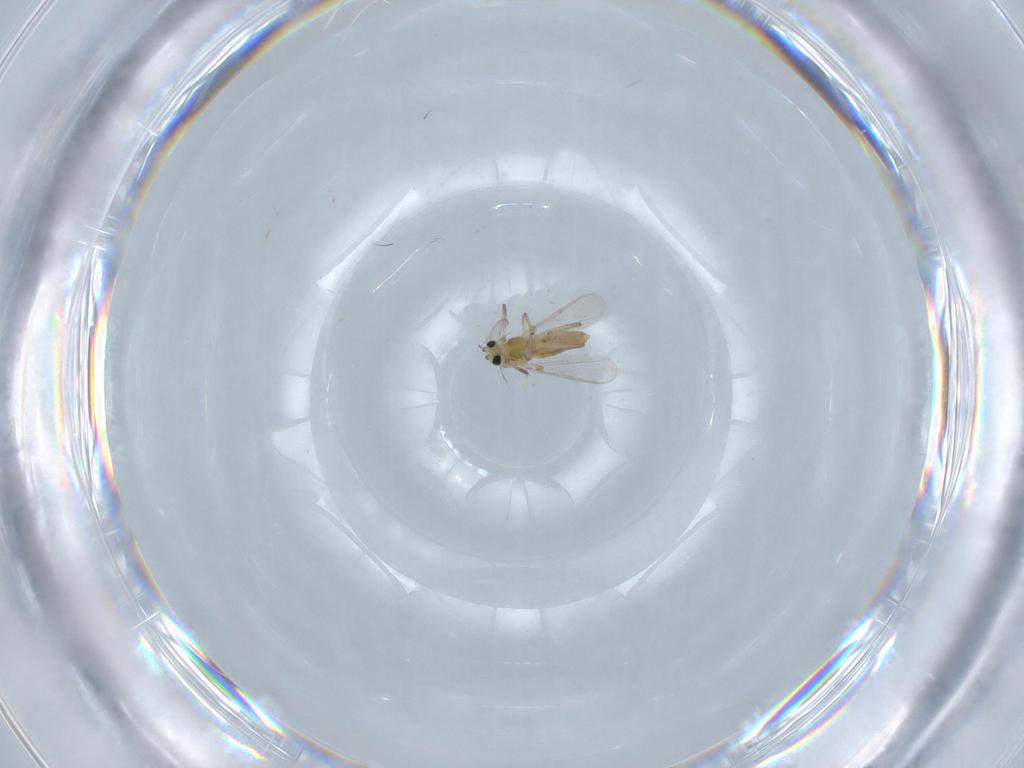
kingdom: Animalia
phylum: Arthropoda
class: Insecta
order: Diptera
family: Chironomidae
